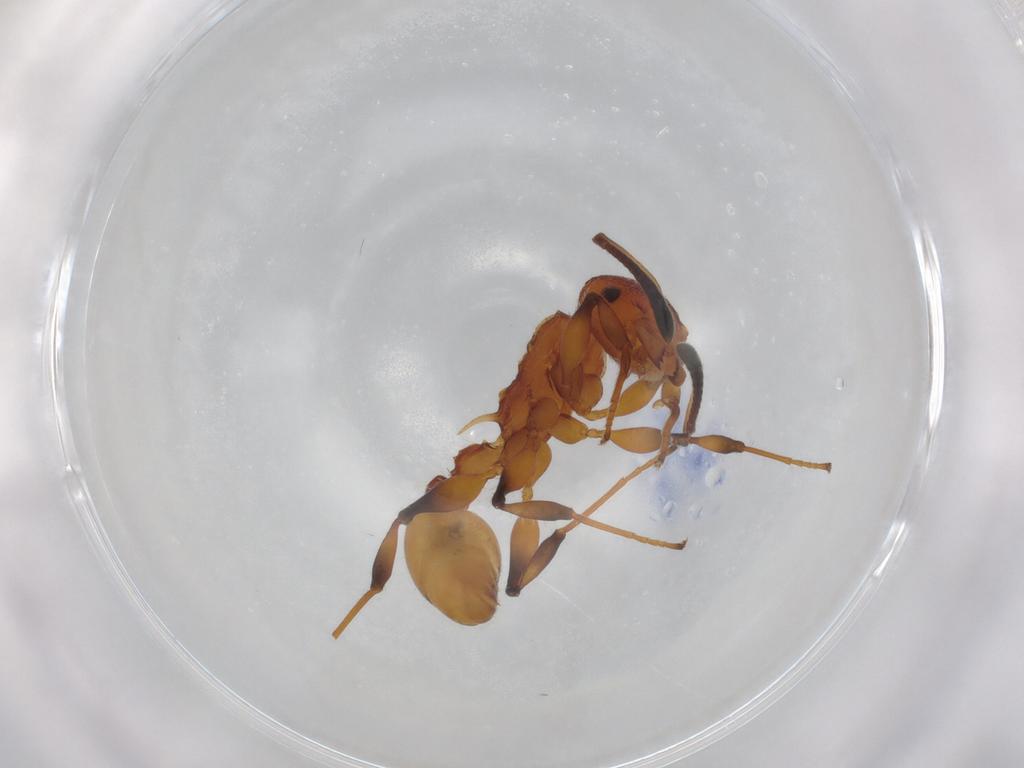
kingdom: Animalia
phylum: Arthropoda
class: Insecta
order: Hymenoptera
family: Formicidae
